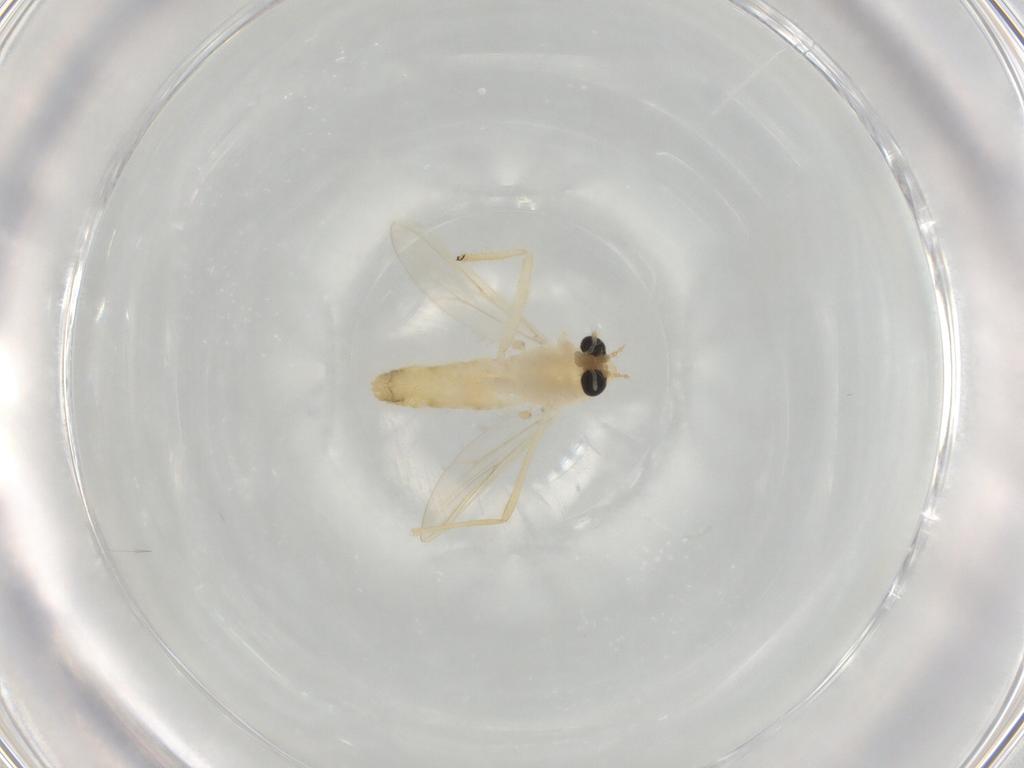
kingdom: Animalia
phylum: Arthropoda
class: Insecta
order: Diptera
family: Chironomidae
